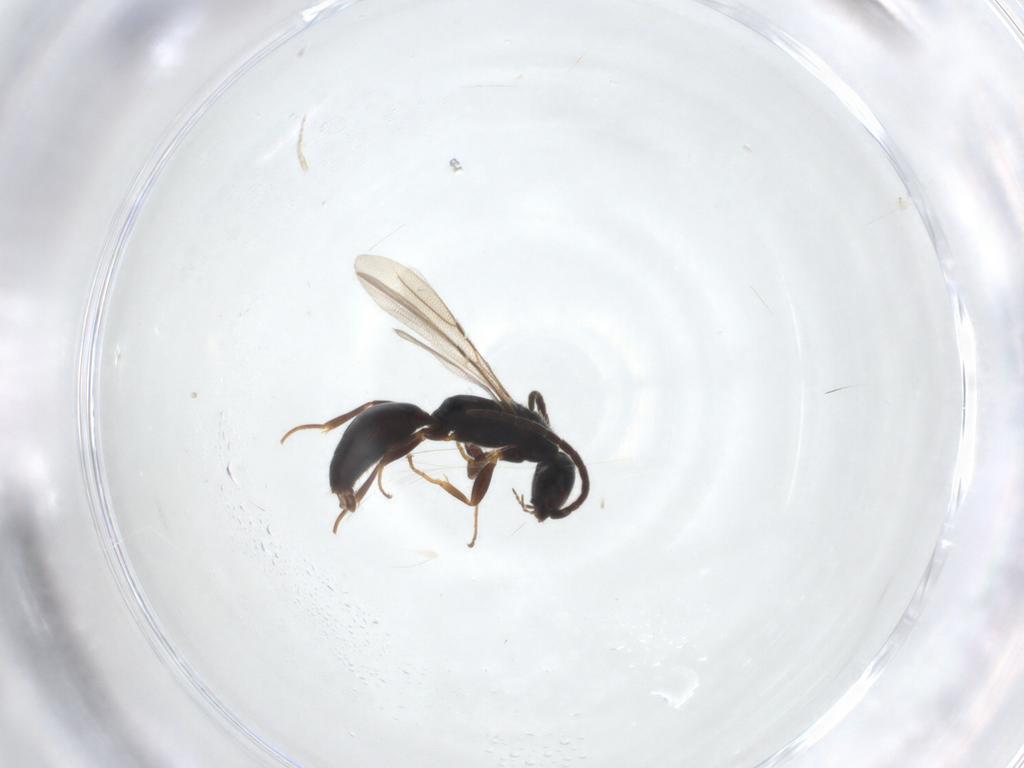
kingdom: Animalia
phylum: Arthropoda
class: Insecta
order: Hymenoptera
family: Bethylidae
